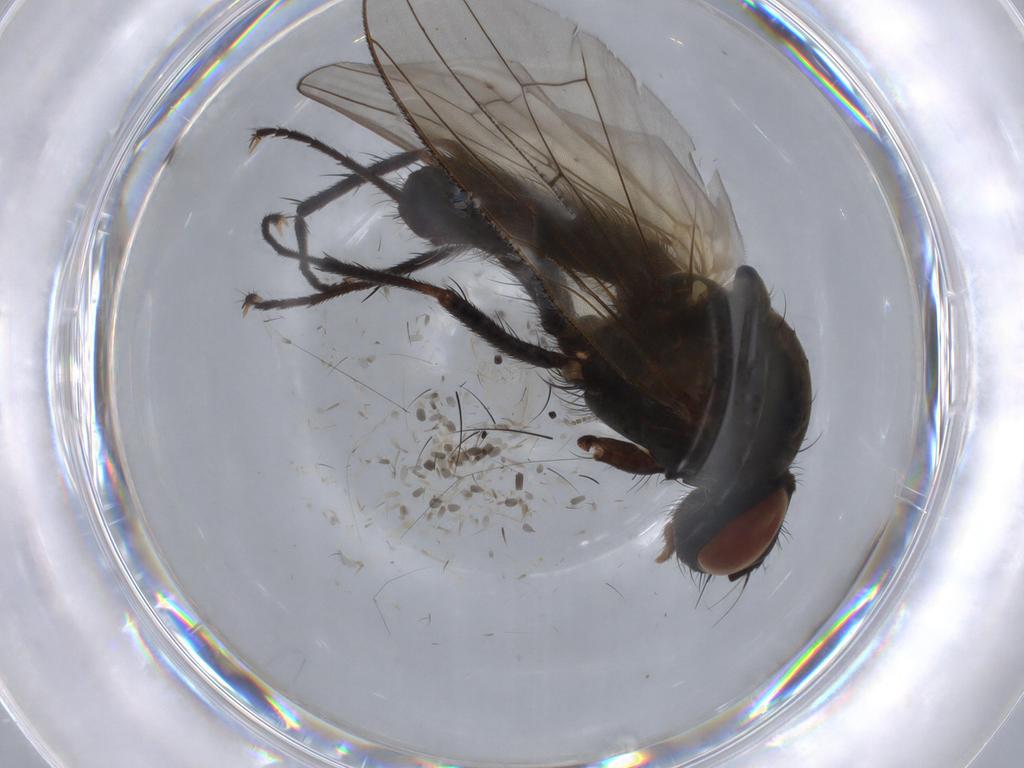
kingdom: Animalia
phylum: Arthropoda
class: Insecta
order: Diptera
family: Anthomyiidae
